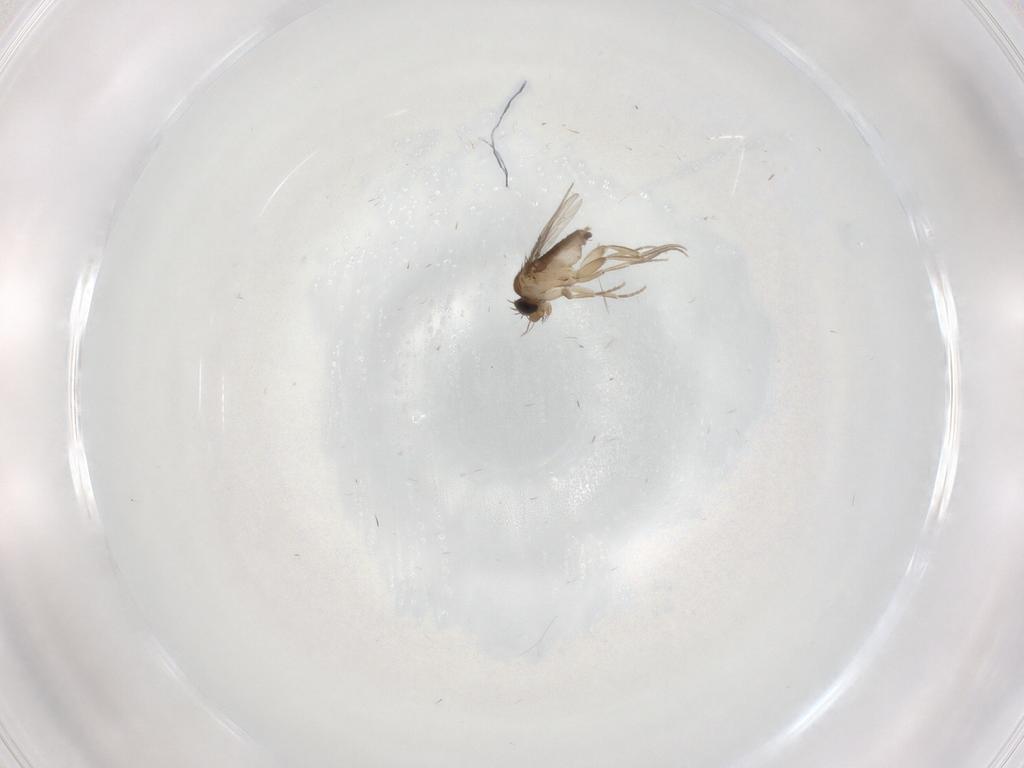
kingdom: Animalia
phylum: Arthropoda
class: Insecta
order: Diptera
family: Phoridae
